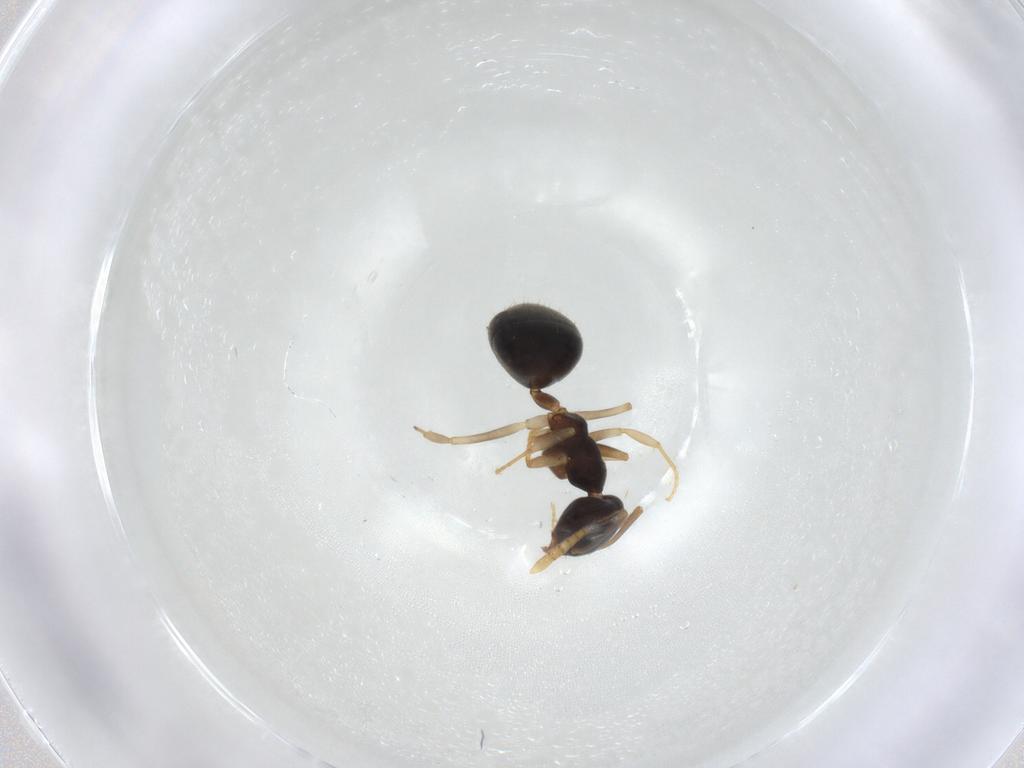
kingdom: Animalia
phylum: Arthropoda
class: Insecta
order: Hymenoptera
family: Formicidae
